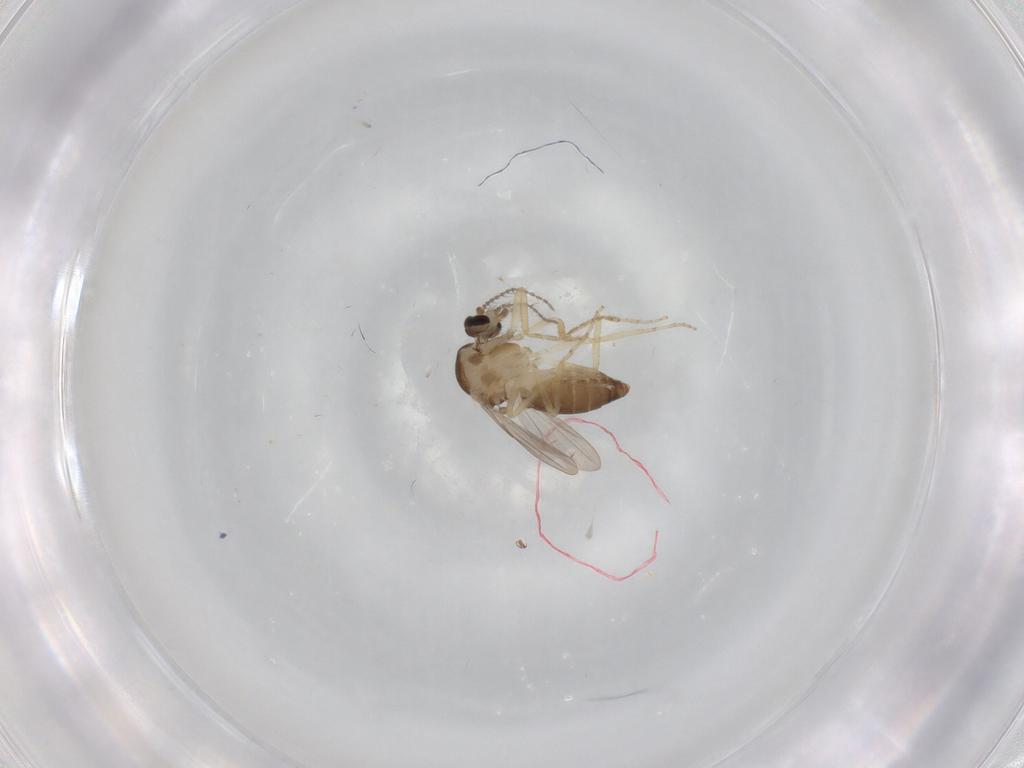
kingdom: Animalia
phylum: Arthropoda
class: Insecta
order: Diptera
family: Ceratopogonidae
